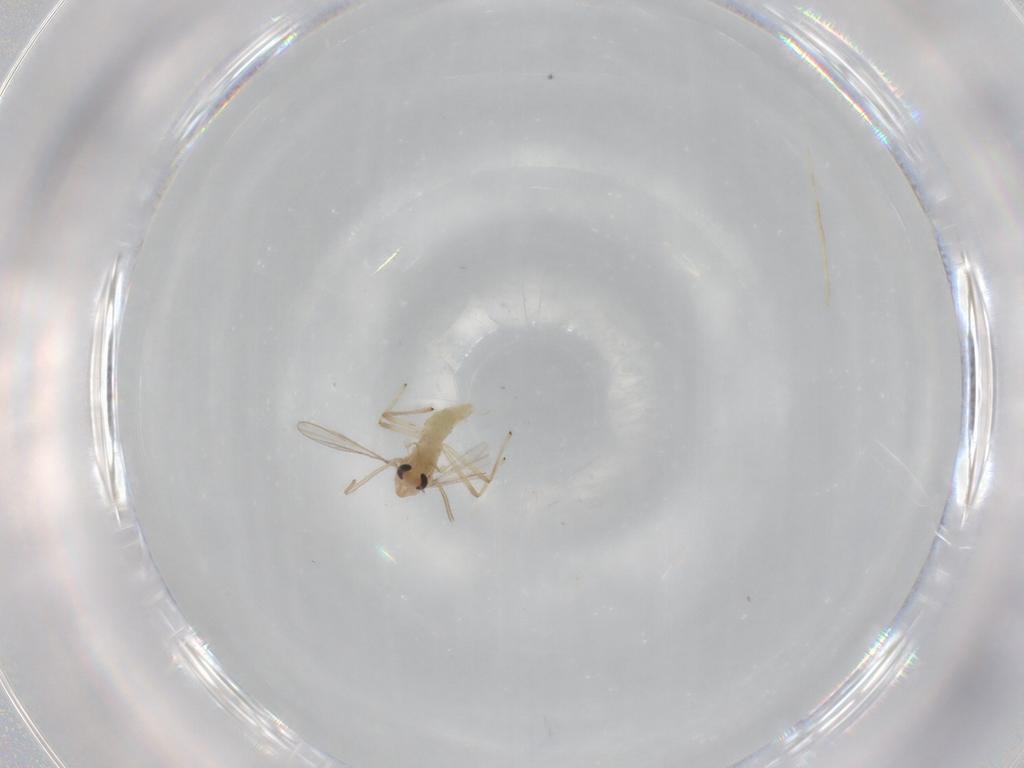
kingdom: Animalia
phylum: Arthropoda
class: Insecta
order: Diptera
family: Chironomidae
